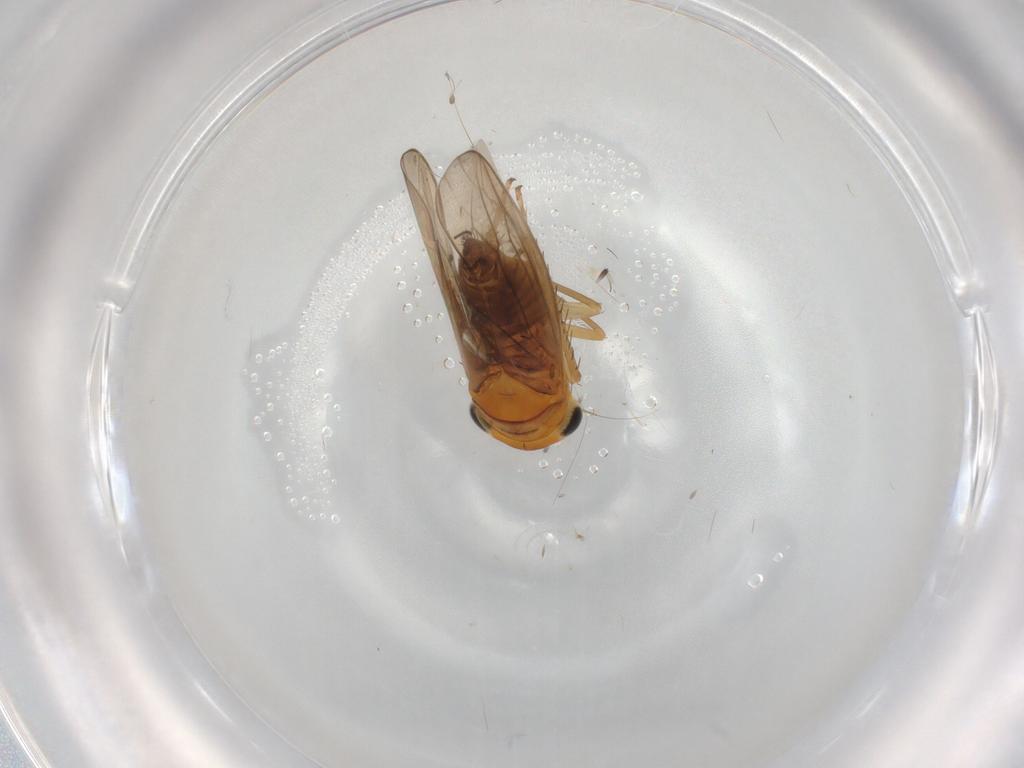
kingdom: Animalia
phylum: Arthropoda
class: Insecta
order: Hemiptera
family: Cicadellidae
